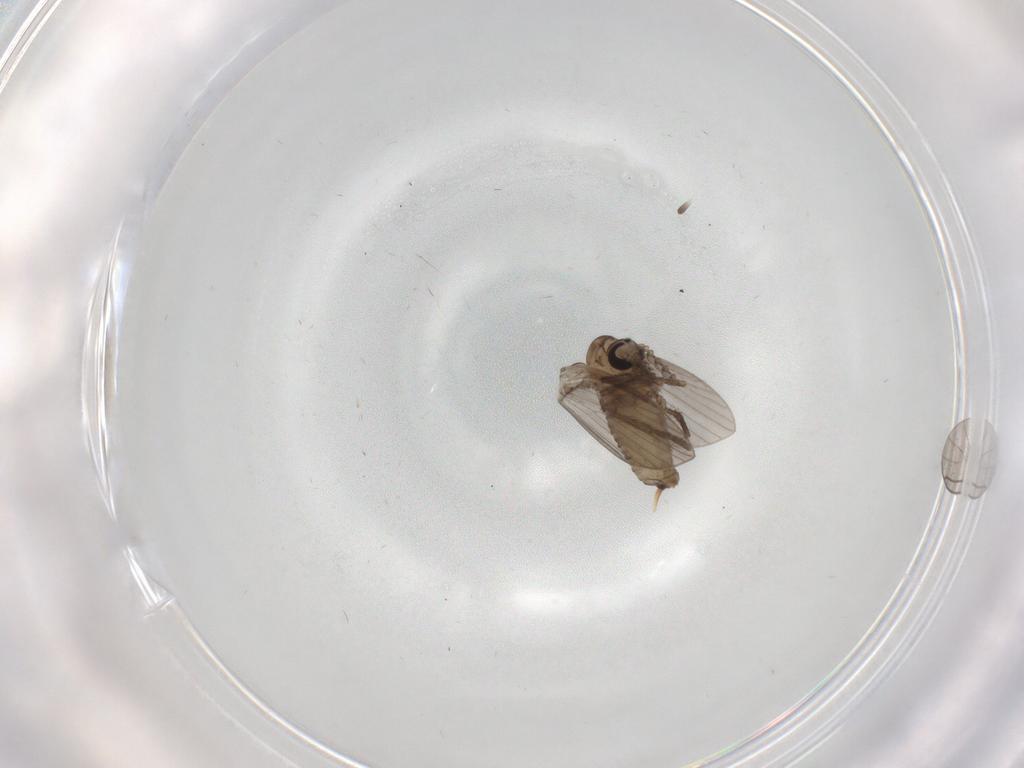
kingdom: Animalia
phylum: Arthropoda
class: Insecta
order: Diptera
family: Psychodidae
